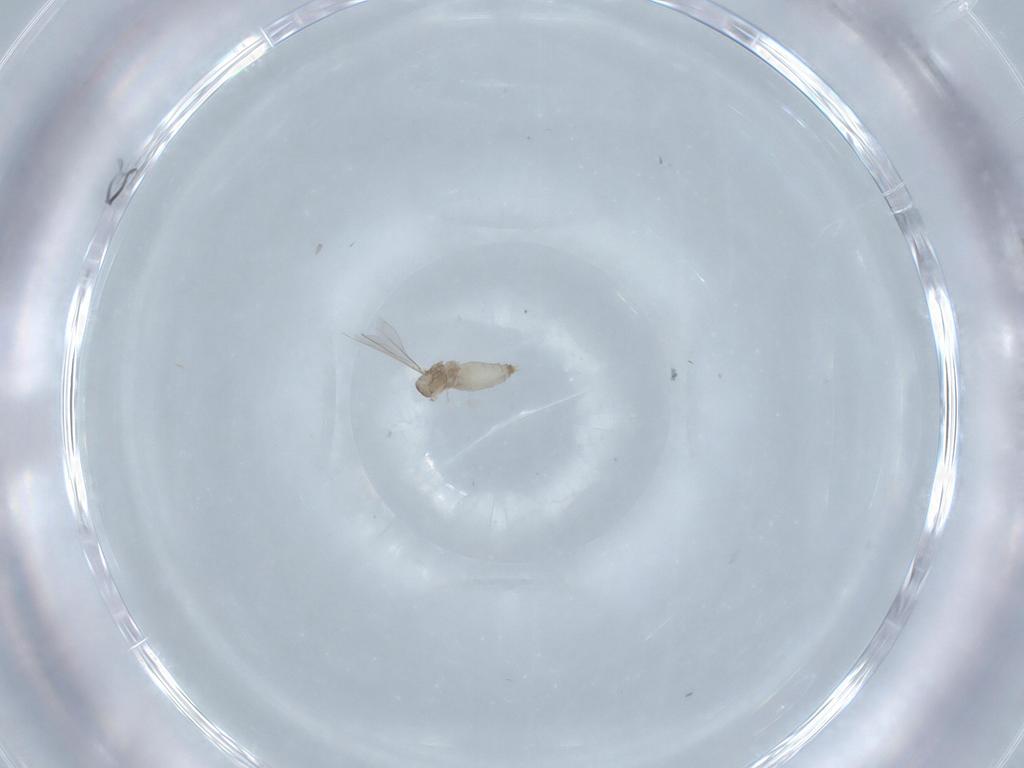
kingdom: Animalia
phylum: Arthropoda
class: Insecta
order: Diptera
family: Cecidomyiidae
